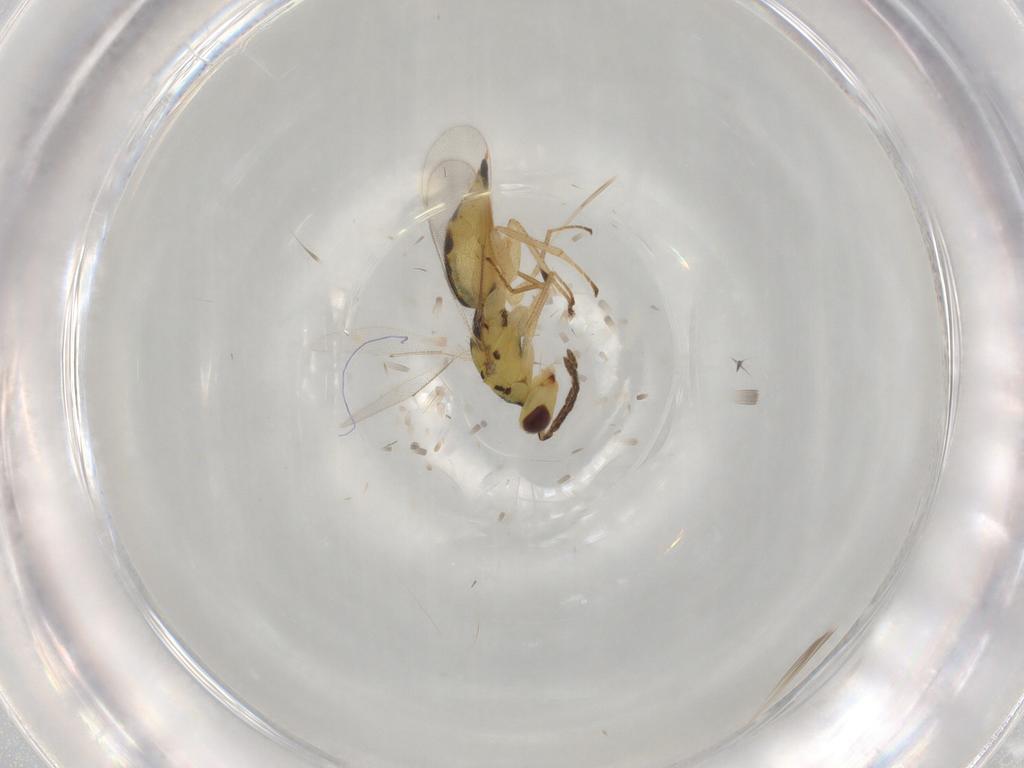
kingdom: Animalia
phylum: Arthropoda
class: Insecta
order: Hymenoptera
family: Eulophidae
